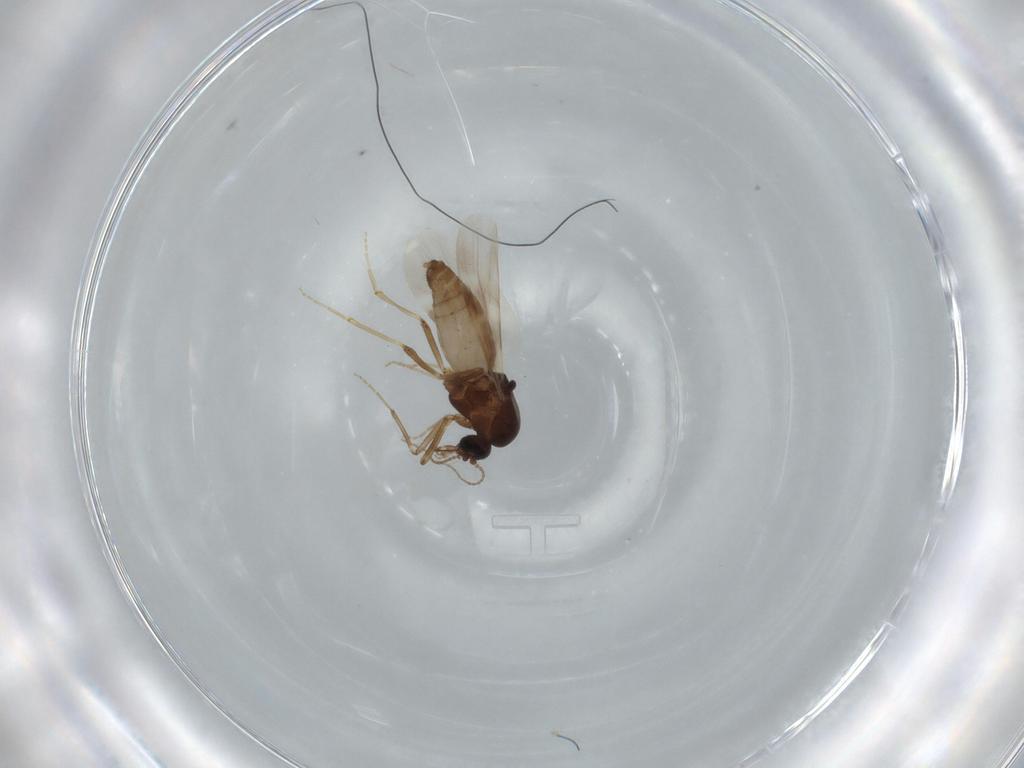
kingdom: Animalia
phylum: Arthropoda
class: Insecta
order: Diptera
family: Ceratopogonidae
